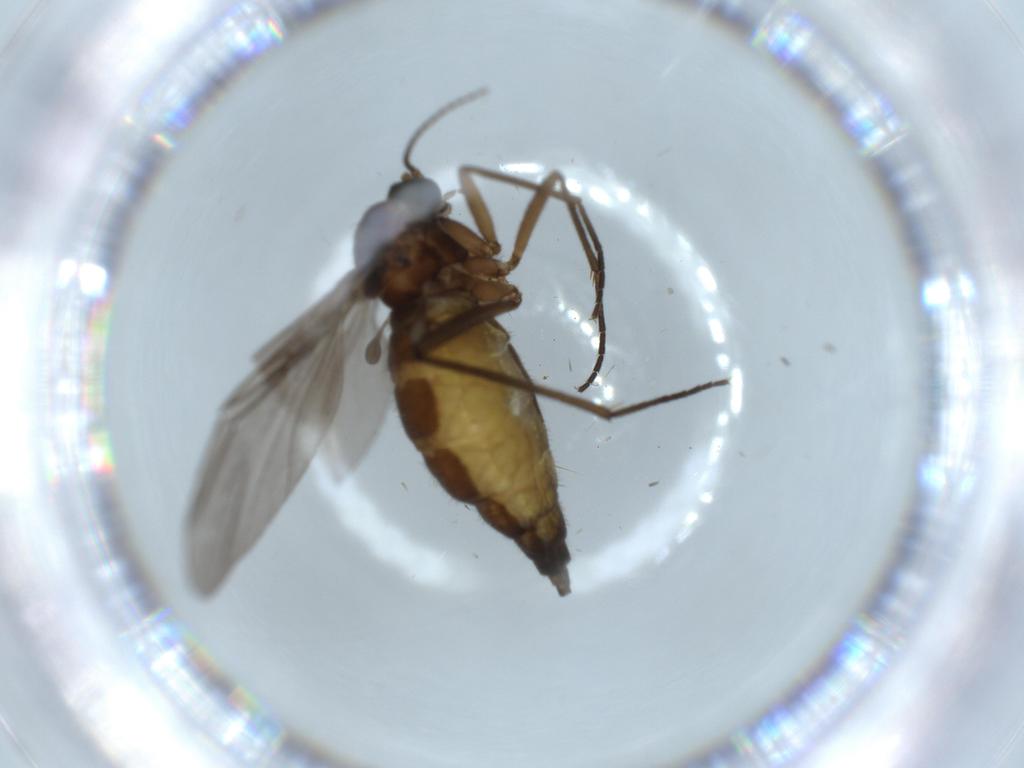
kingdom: Animalia
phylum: Arthropoda
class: Insecta
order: Diptera
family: Sciaridae
